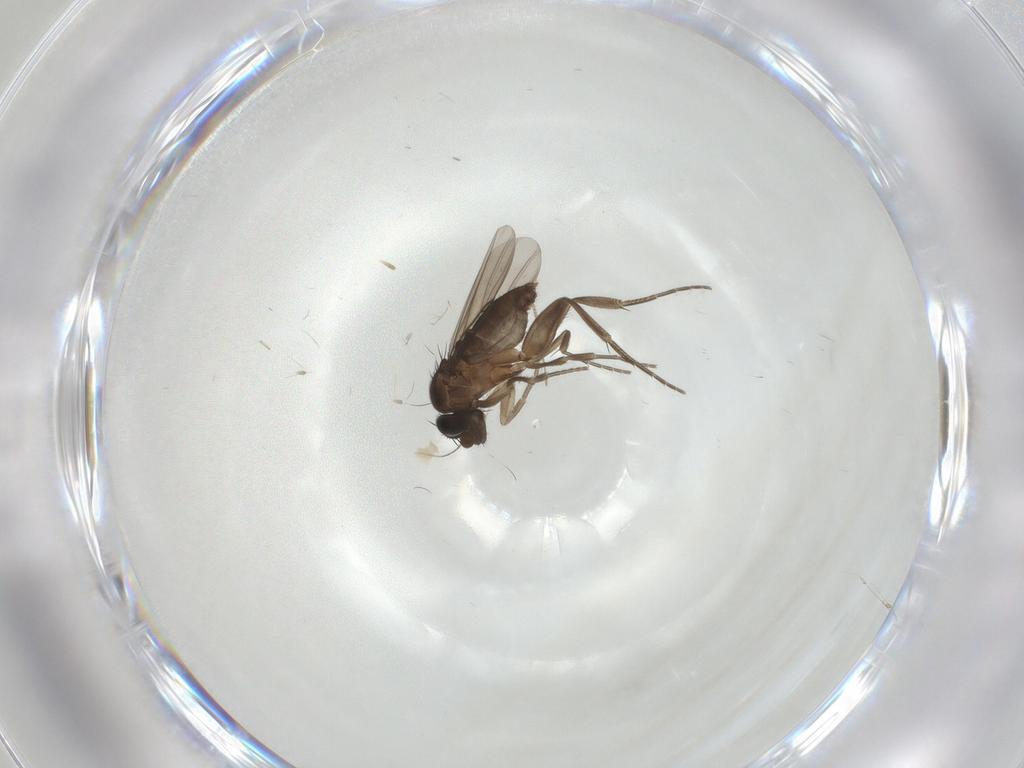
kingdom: Animalia
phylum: Arthropoda
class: Insecta
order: Diptera
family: Phoridae
